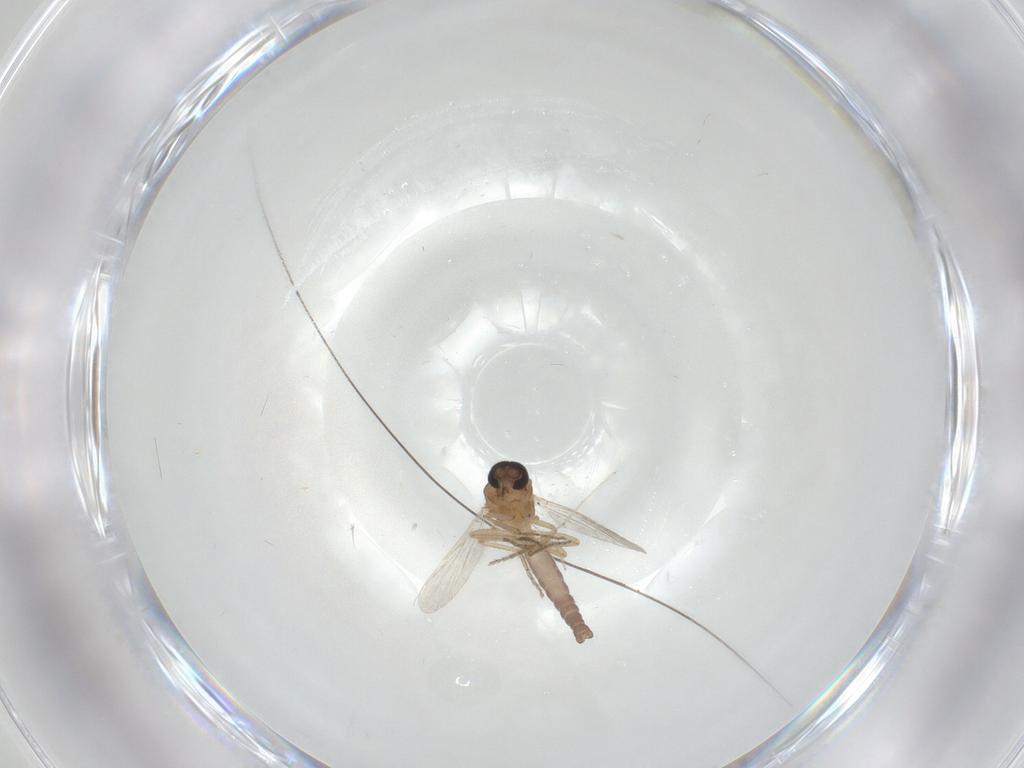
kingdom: Animalia
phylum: Arthropoda
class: Insecta
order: Diptera
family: Ceratopogonidae
